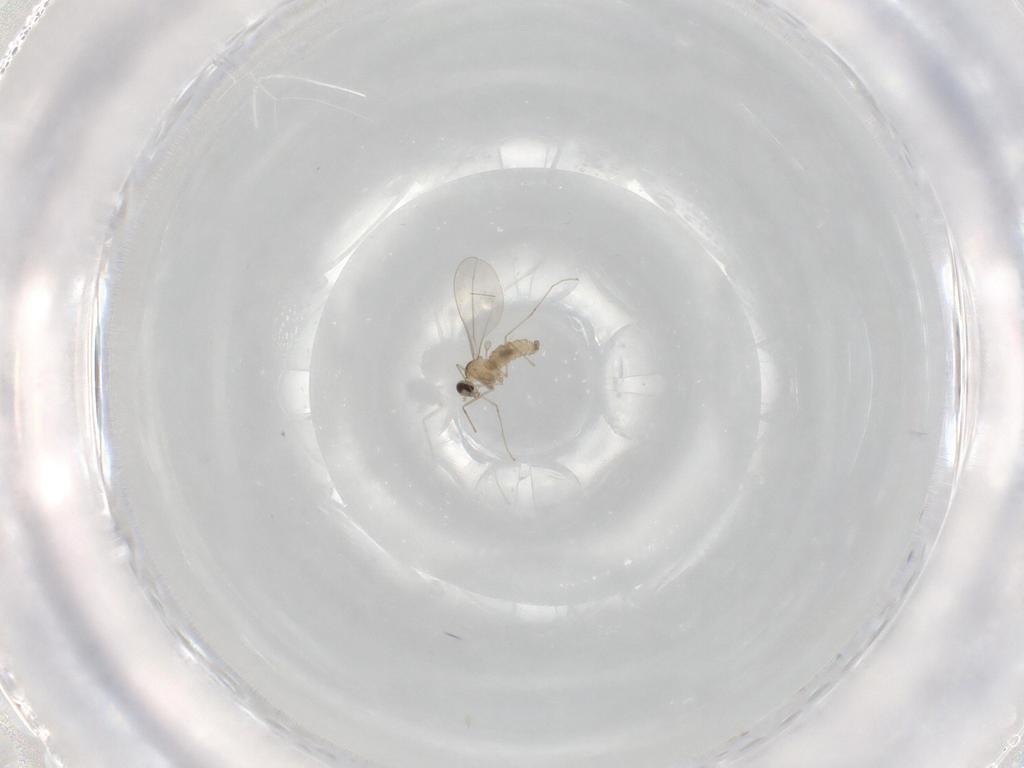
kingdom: Animalia
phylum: Arthropoda
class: Insecta
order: Diptera
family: Cecidomyiidae
